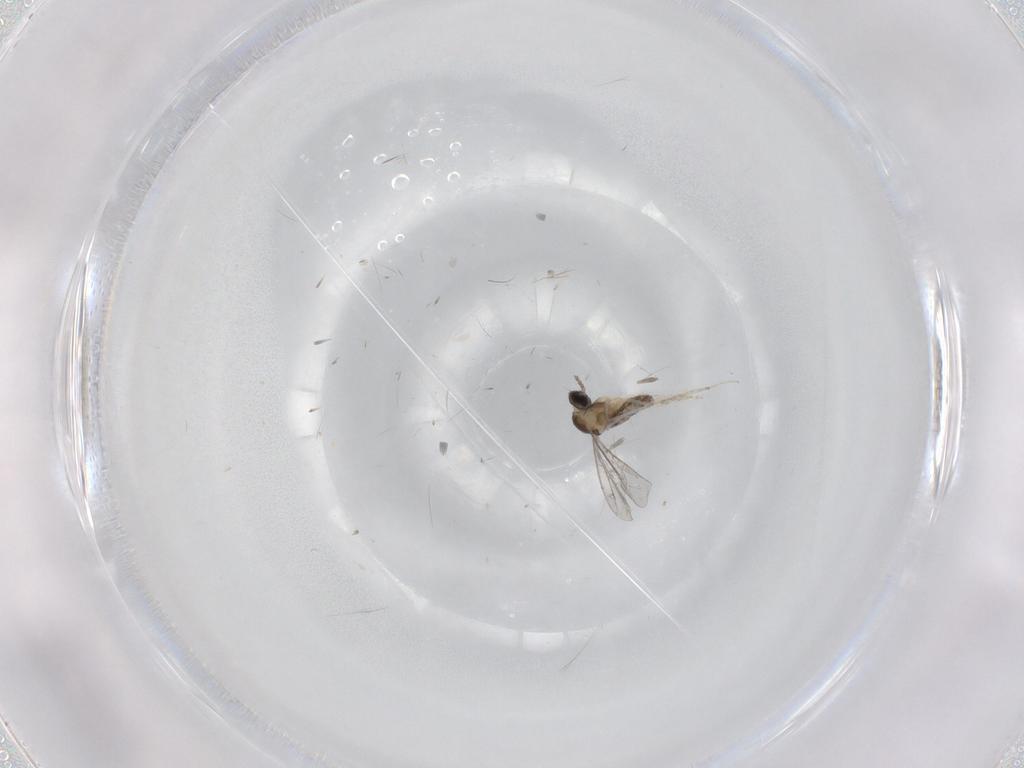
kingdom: Animalia
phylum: Arthropoda
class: Insecta
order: Diptera
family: Cecidomyiidae
